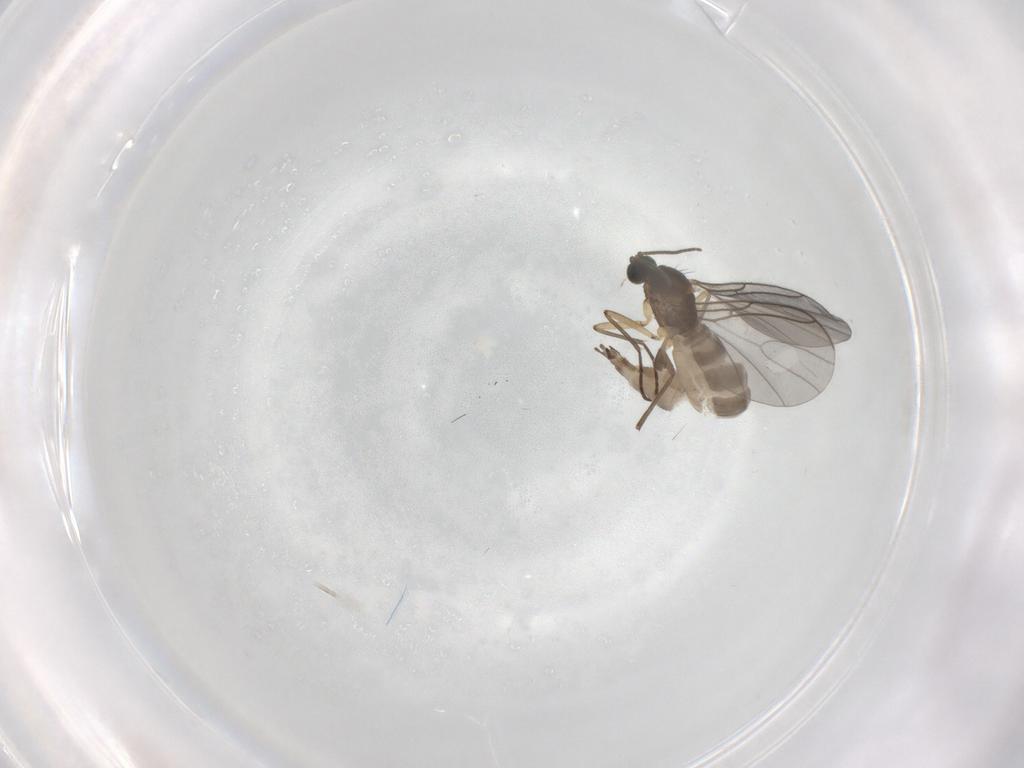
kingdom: Animalia
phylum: Arthropoda
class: Insecta
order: Diptera
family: Sciaridae
